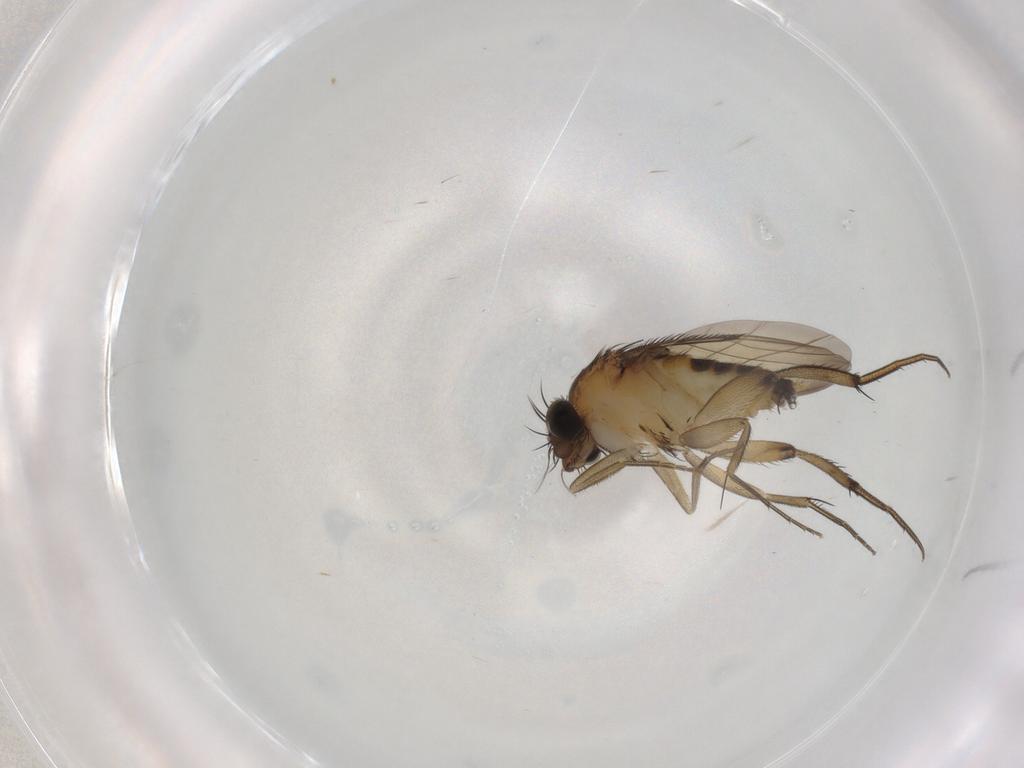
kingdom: Animalia
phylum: Arthropoda
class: Insecta
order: Diptera
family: Phoridae
